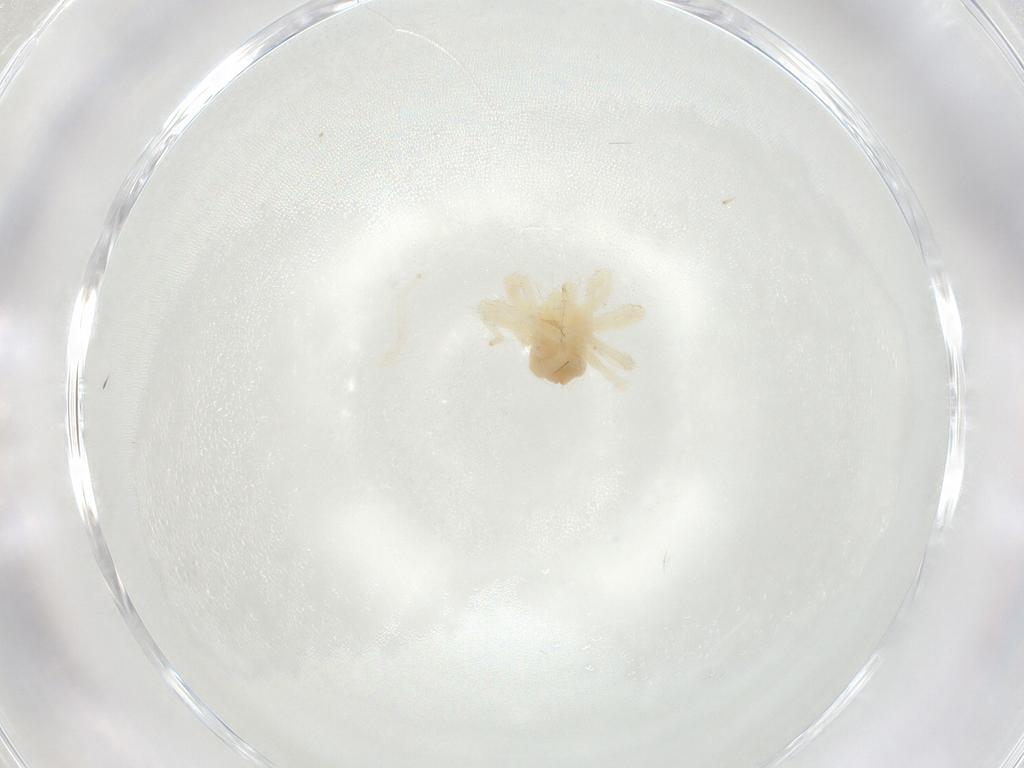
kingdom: Animalia
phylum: Arthropoda
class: Arachnida
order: Trombidiformes
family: Anystidae
